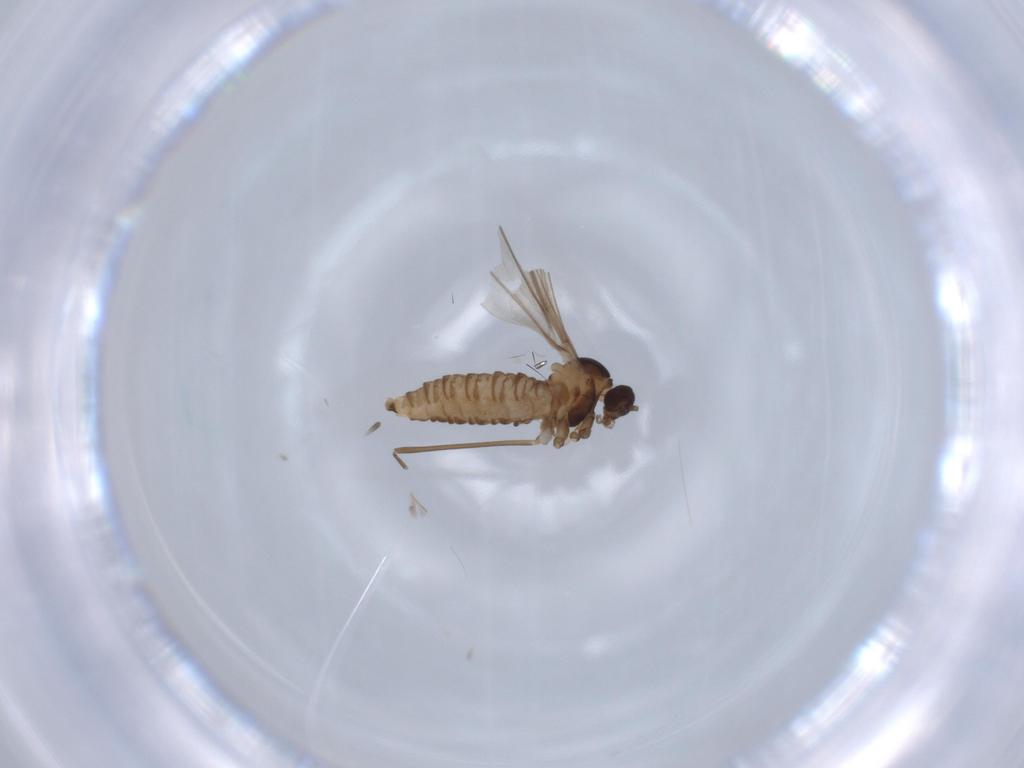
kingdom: Animalia
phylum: Arthropoda
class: Insecta
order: Diptera
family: Cecidomyiidae
